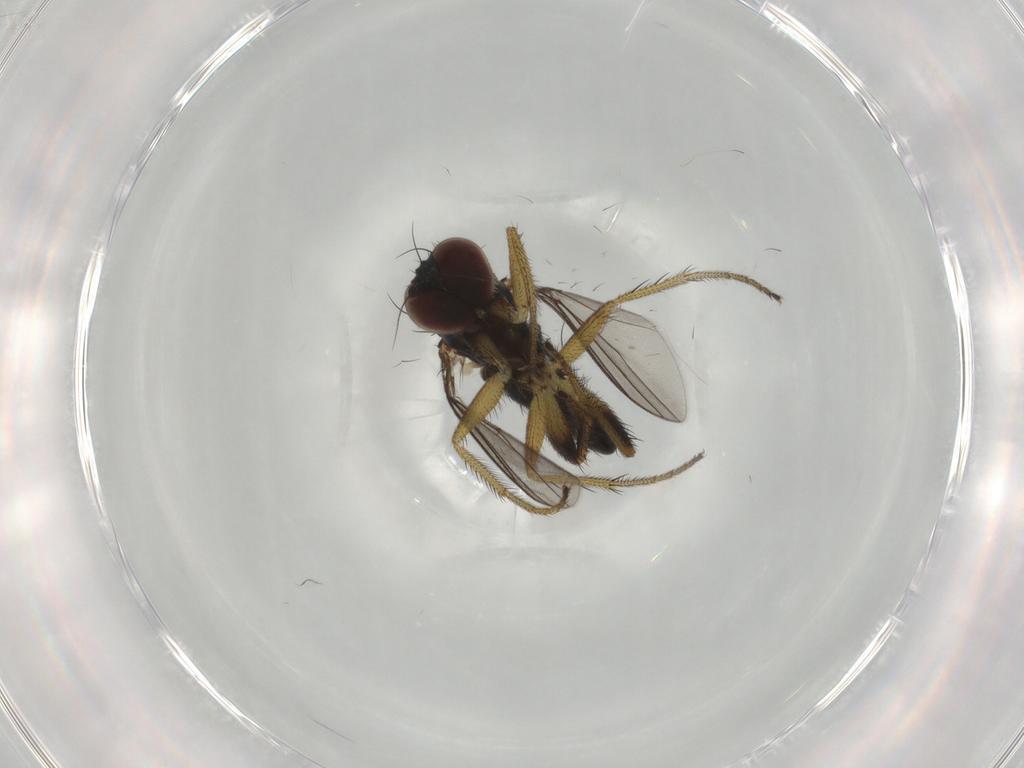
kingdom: Animalia
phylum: Arthropoda
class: Insecta
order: Diptera
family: Dolichopodidae
